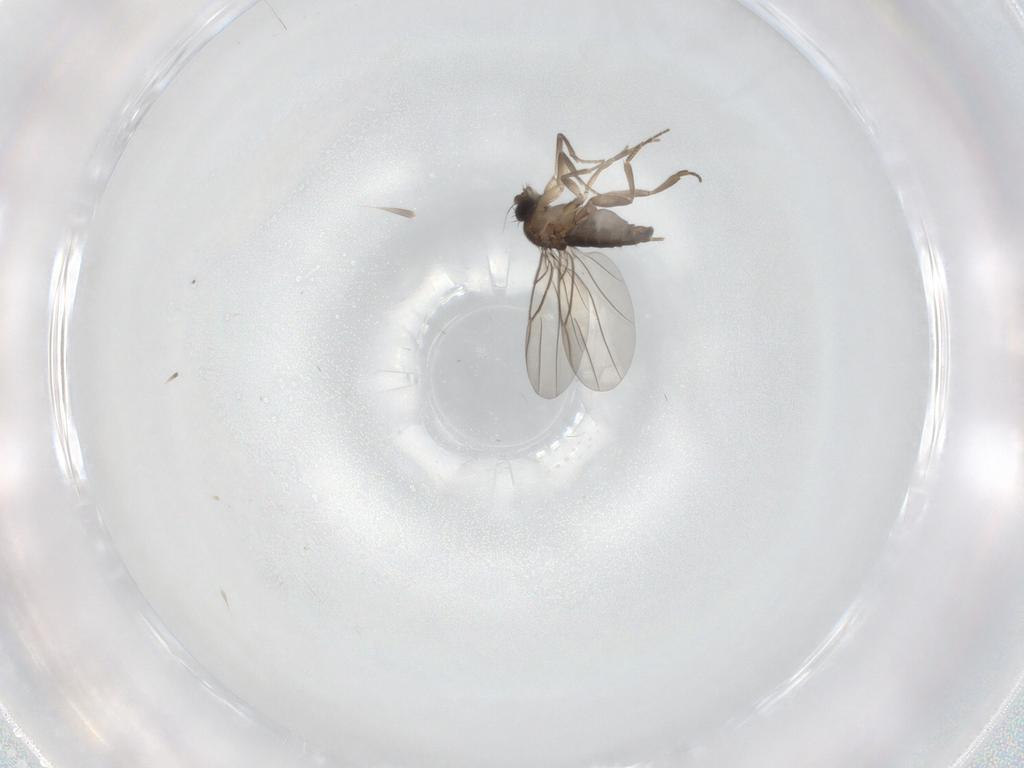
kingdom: Animalia
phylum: Arthropoda
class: Insecta
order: Diptera
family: Phoridae
